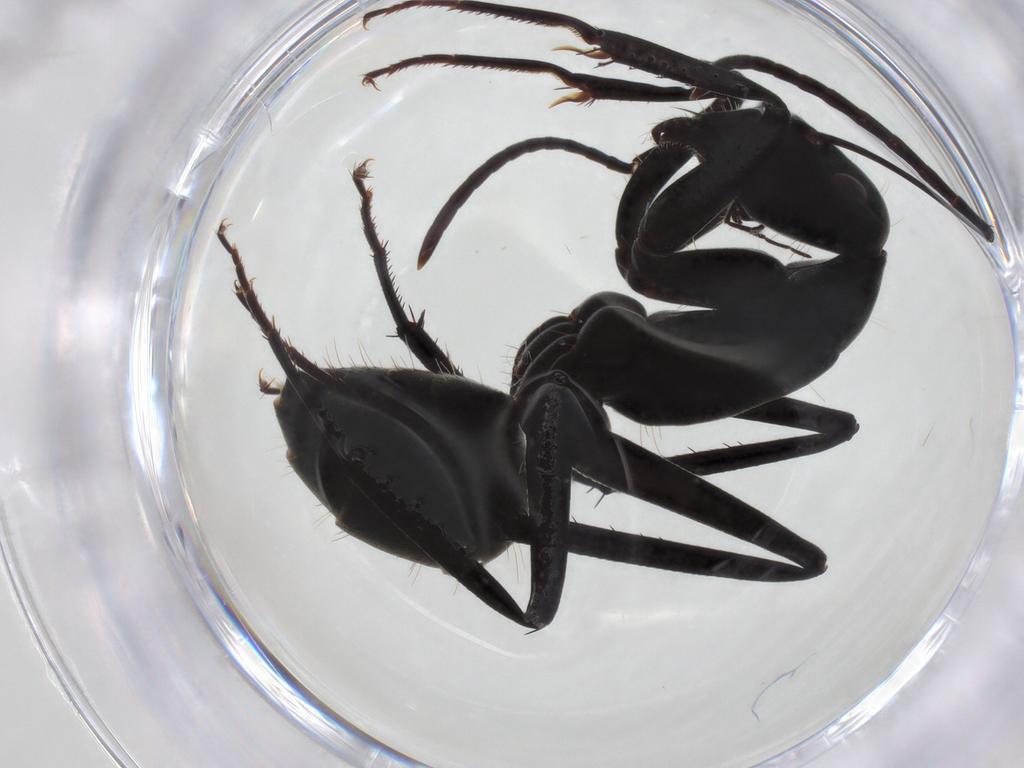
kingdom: Animalia
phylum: Arthropoda
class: Insecta
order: Hymenoptera
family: Formicidae
